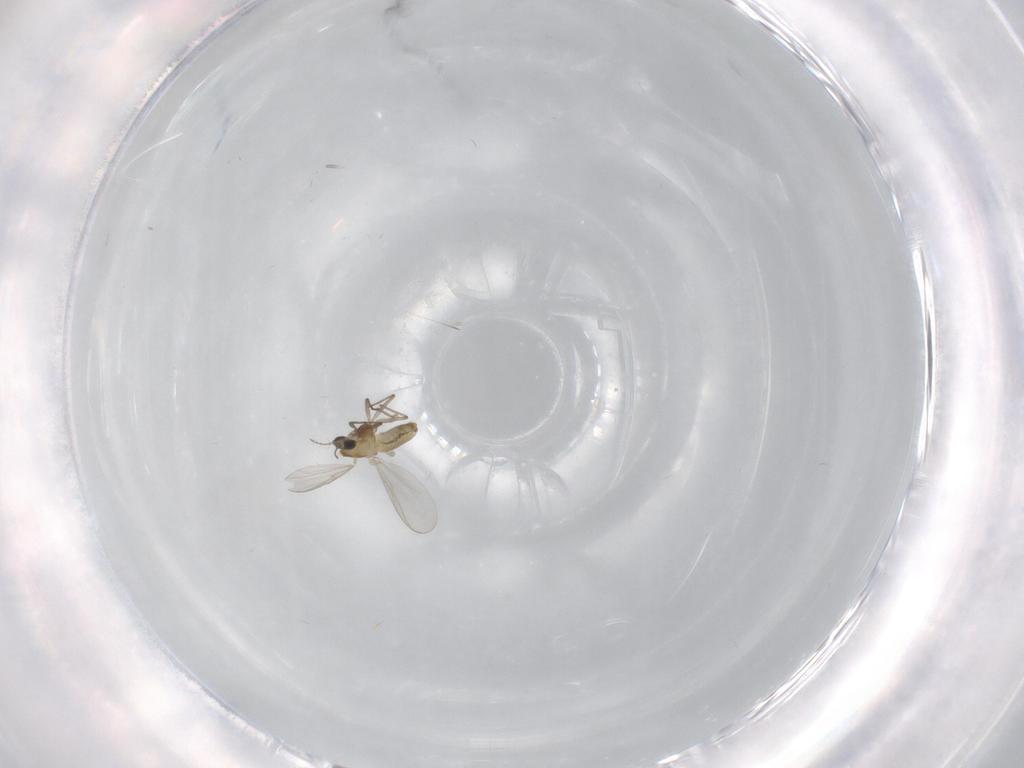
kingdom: Animalia
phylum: Arthropoda
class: Insecta
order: Diptera
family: Chironomidae
